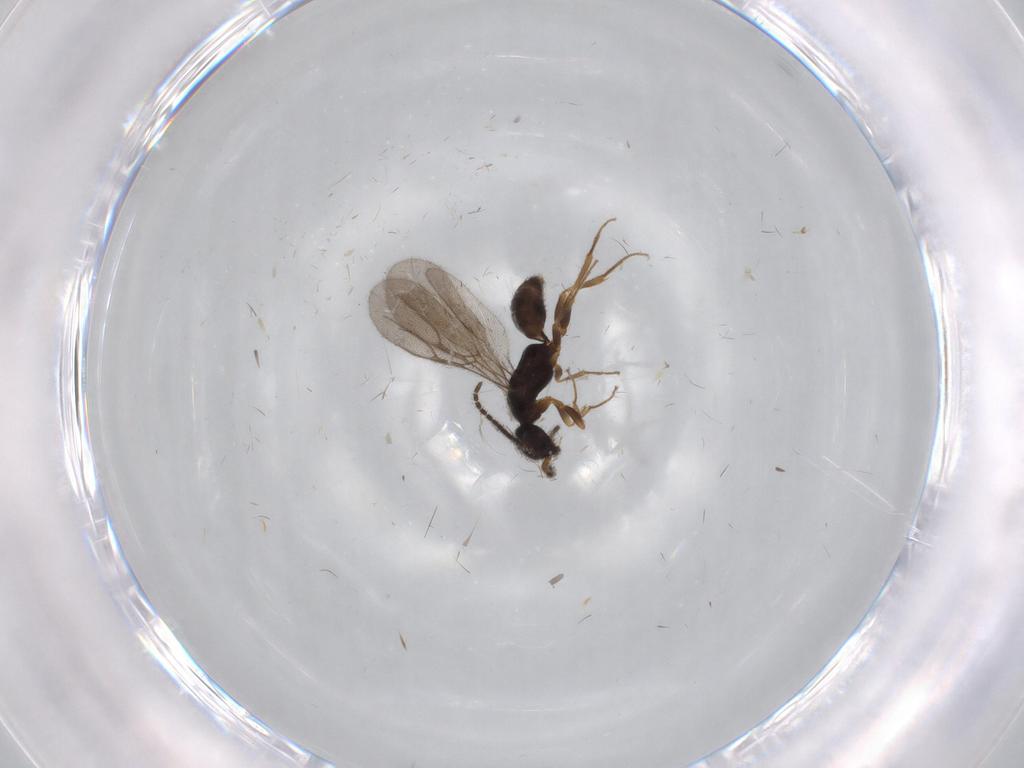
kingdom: Animalia
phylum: Arthropoda
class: Insecta
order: Hymenoptera
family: Bethylidae
